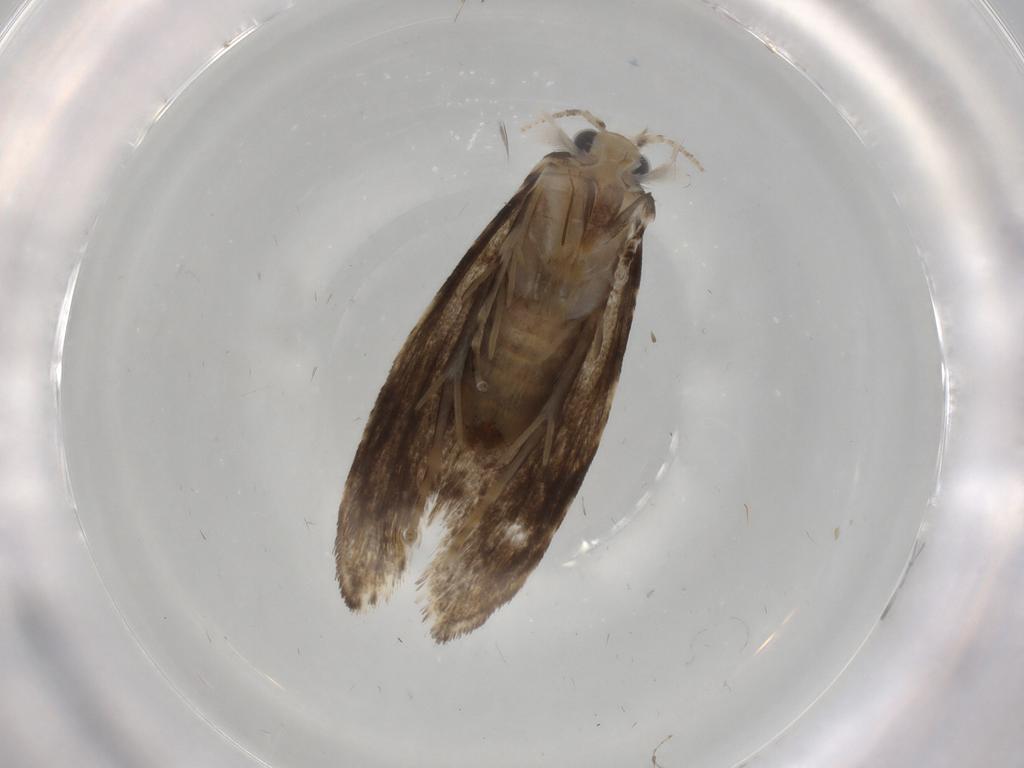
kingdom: Animalia
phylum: Arthropoda
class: Insecta
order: Lepidoptera
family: Tineidae
